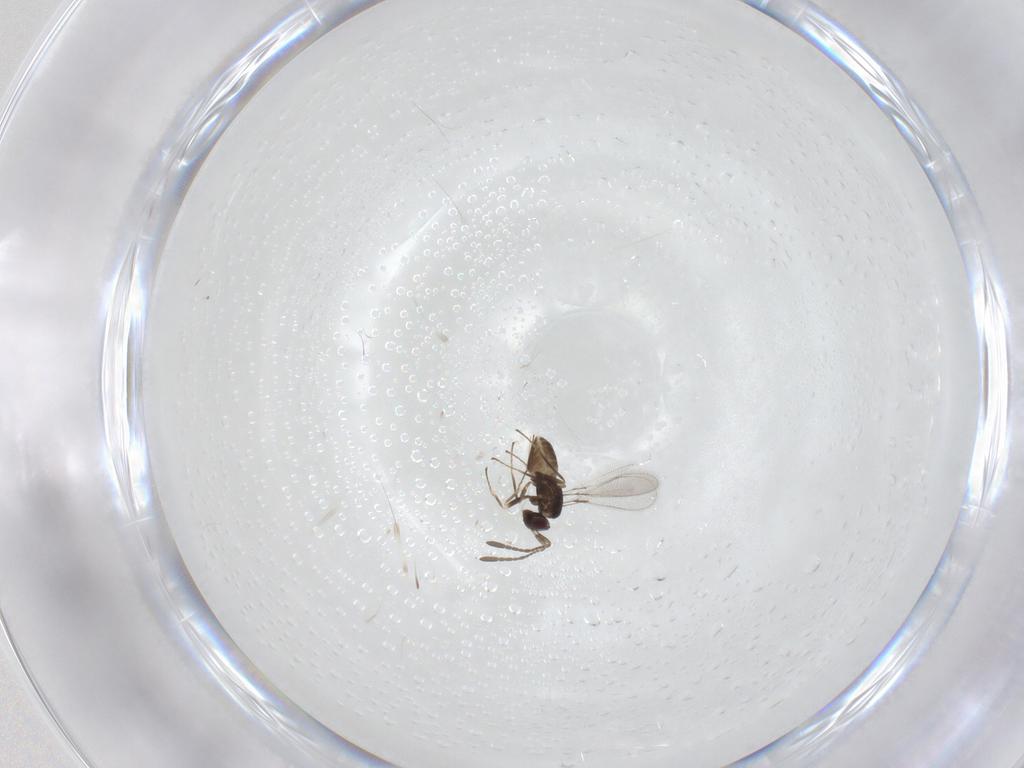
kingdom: Animalia
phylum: Arthropoda
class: Insecta
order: Hymenoptera
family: Mymaridae
